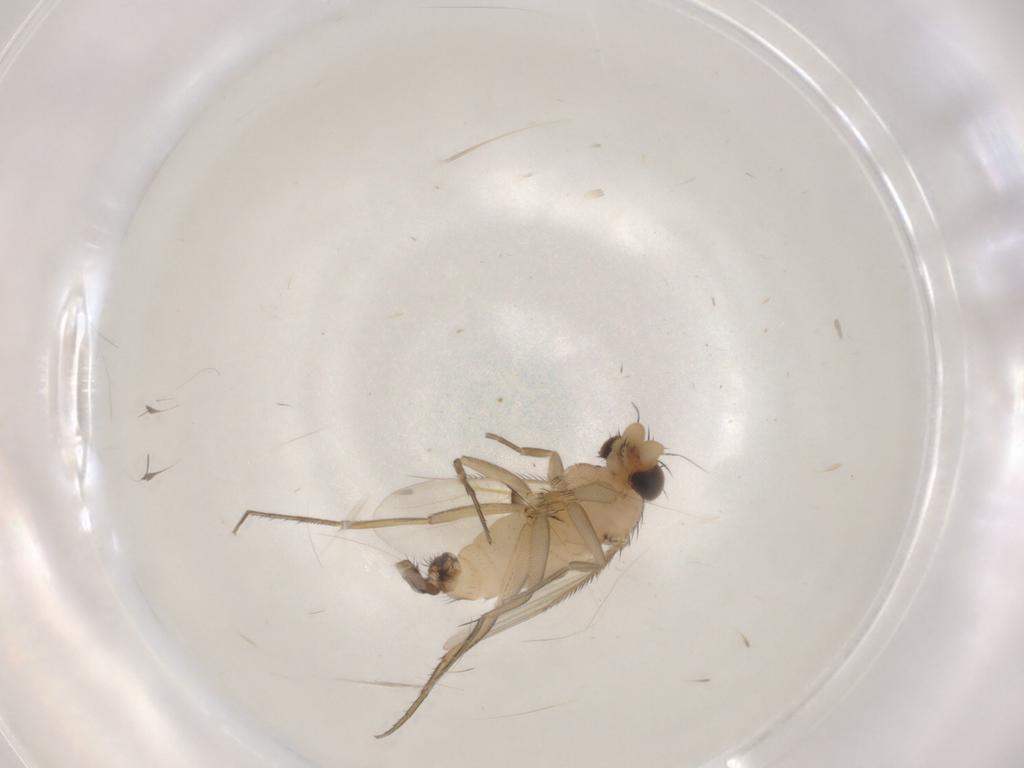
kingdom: Animalia
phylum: Arthropoda
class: Insecta
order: Diptera
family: Phoridae
